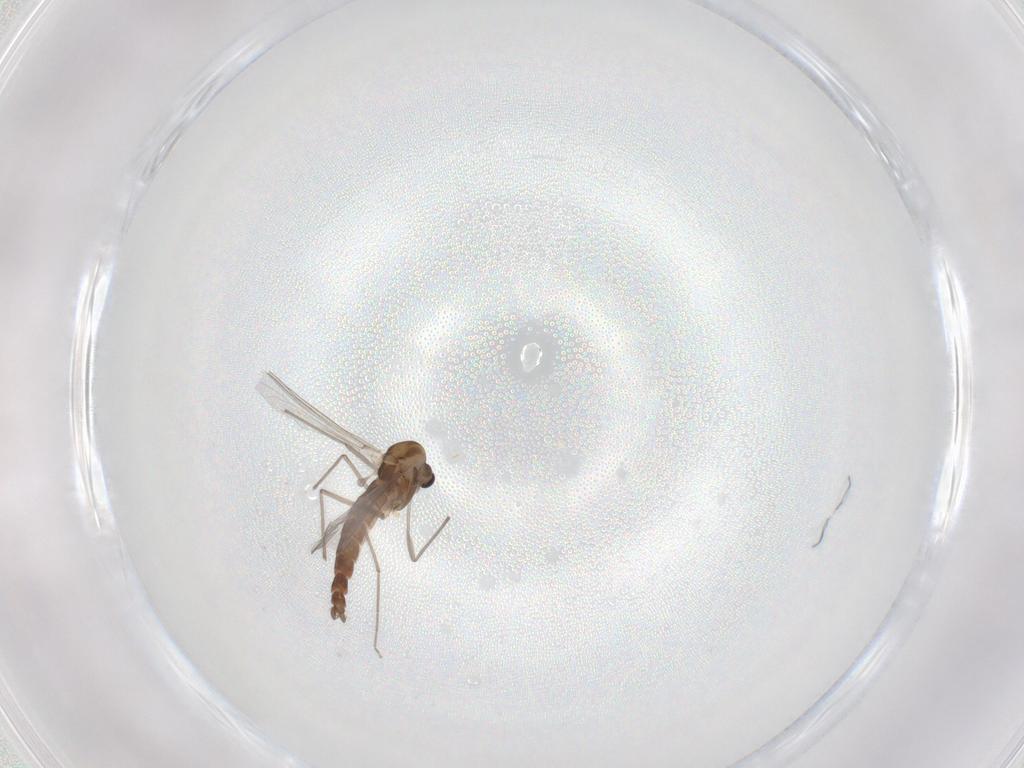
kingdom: Animalia
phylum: Arthropoda
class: Insecta
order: Diptera
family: Chironomidae
